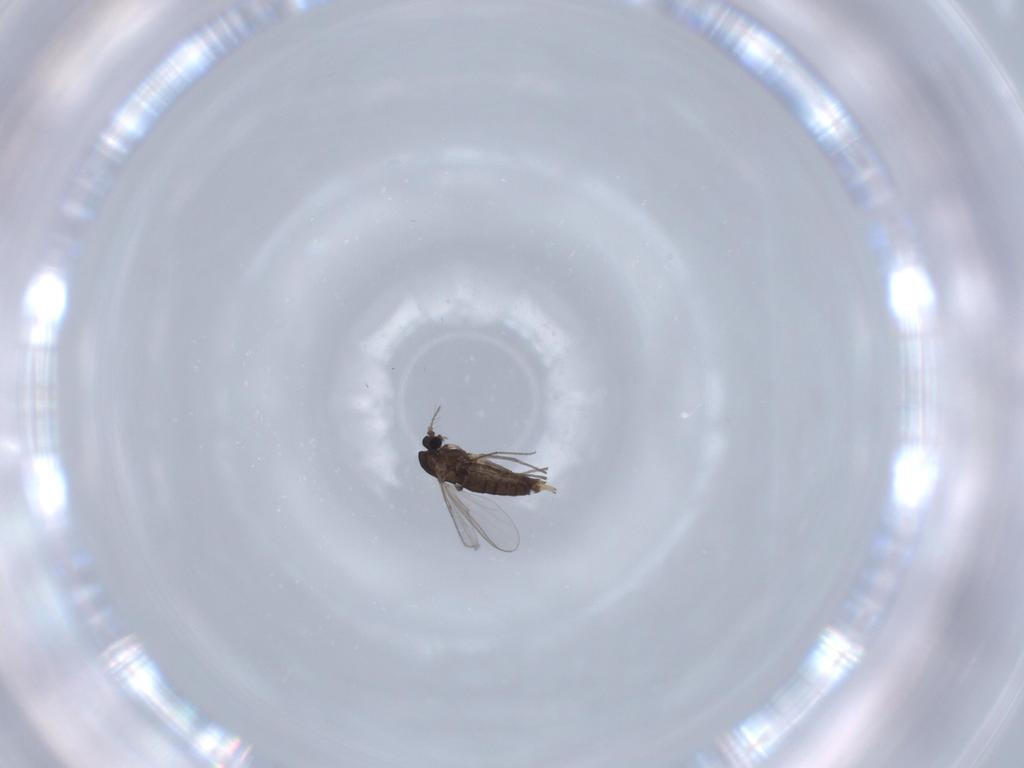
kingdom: Animalia
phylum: Arthropoda
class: Insecta
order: Diptera
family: Chironomidae
